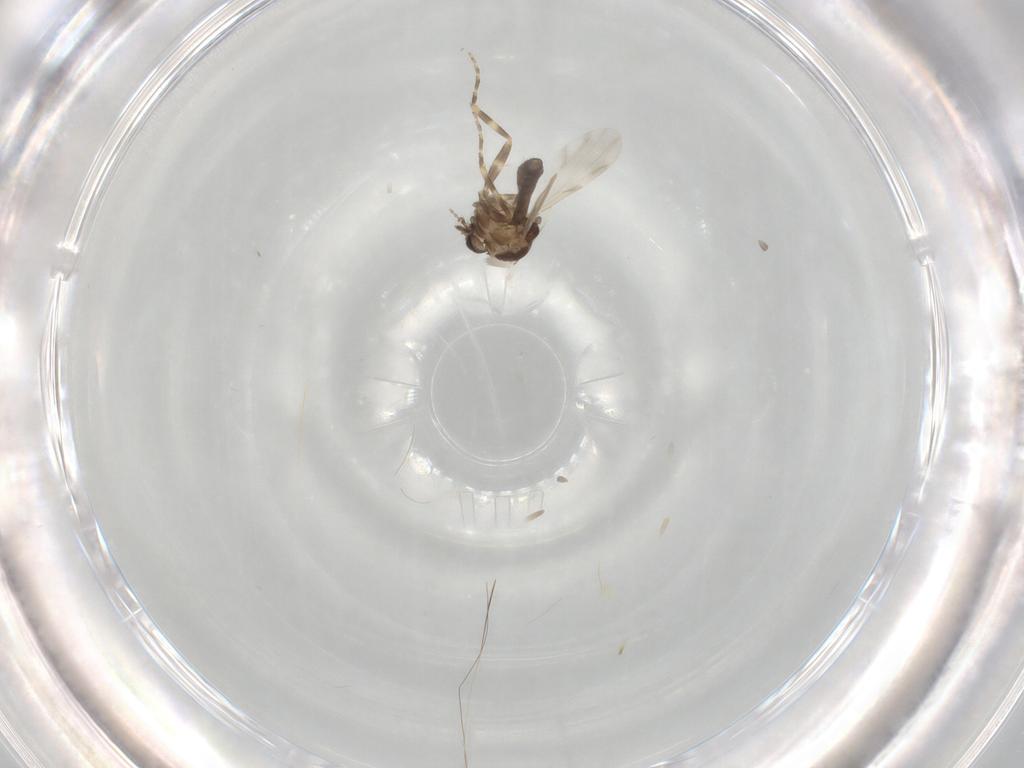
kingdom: Animalia
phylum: Arthropoda
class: Insecta
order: Diptera
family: Ceratopogonidae
